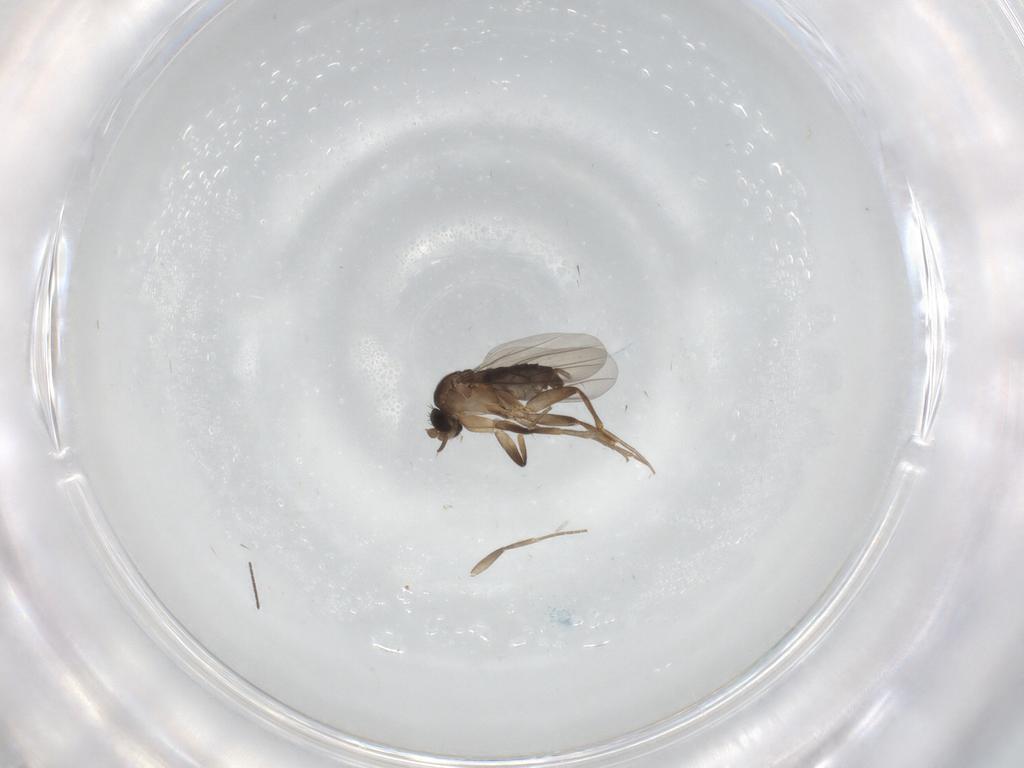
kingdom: Animalia
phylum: Arthropoda
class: Insecta
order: Diptera
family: Phoridae
